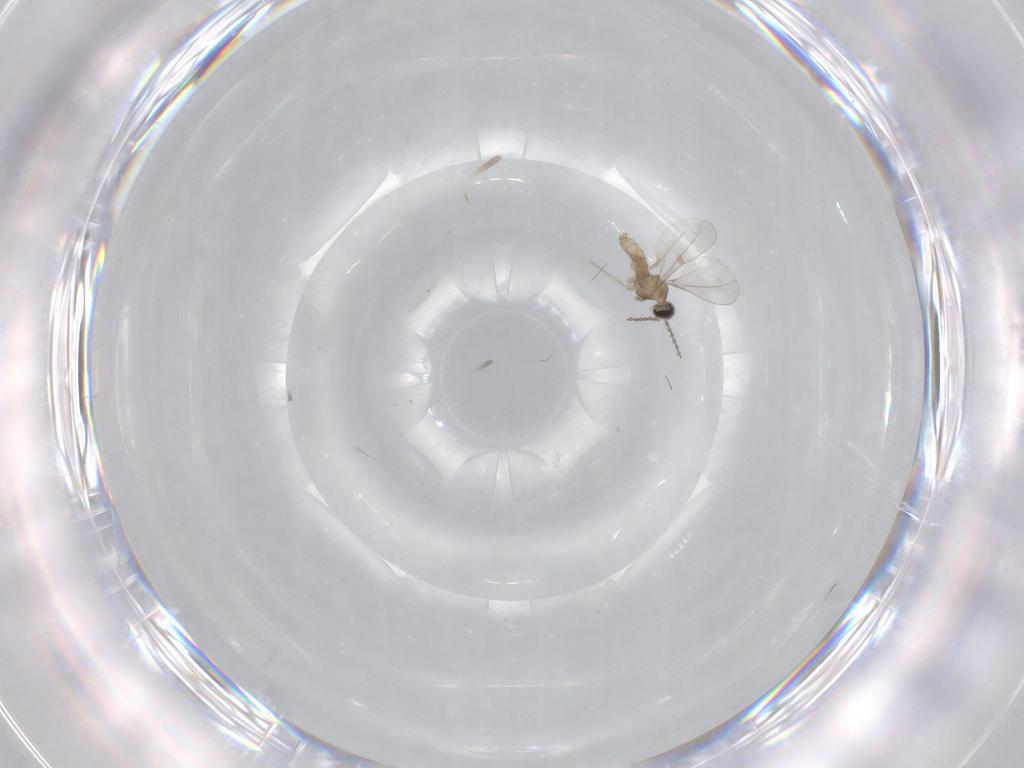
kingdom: Animalia
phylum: Arthropoda
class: Insecta
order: Diptera
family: Cecidomyiidae
